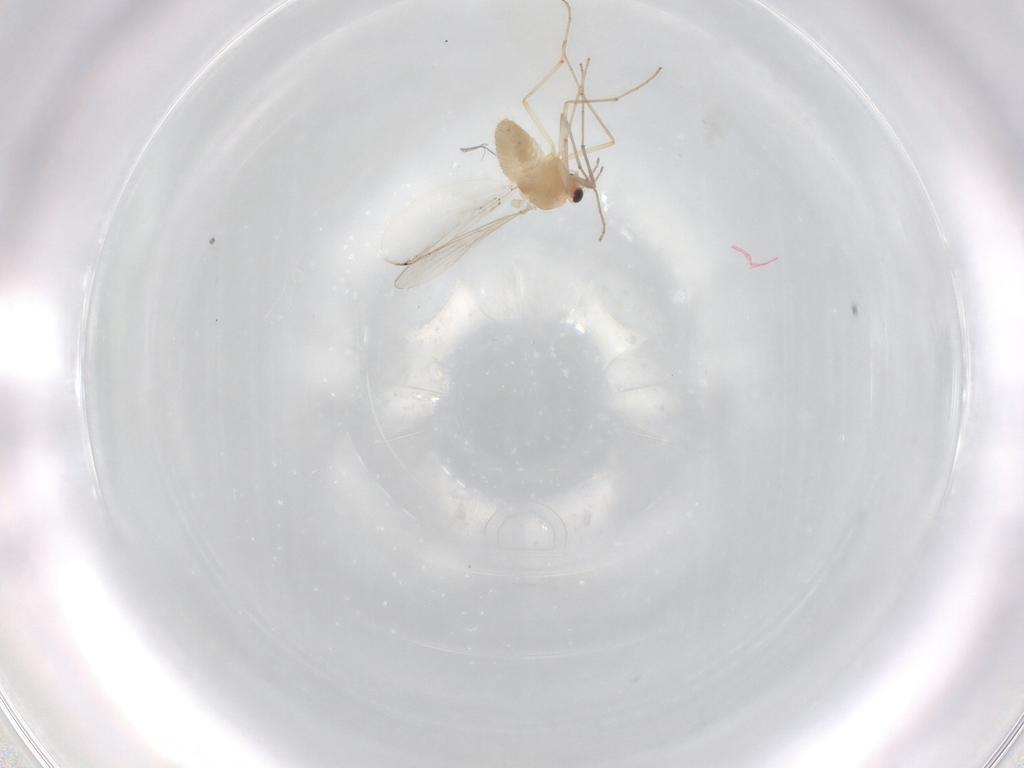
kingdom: Animalia
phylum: Arthropoda
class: Insecta
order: Diptera
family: Chironomidae
